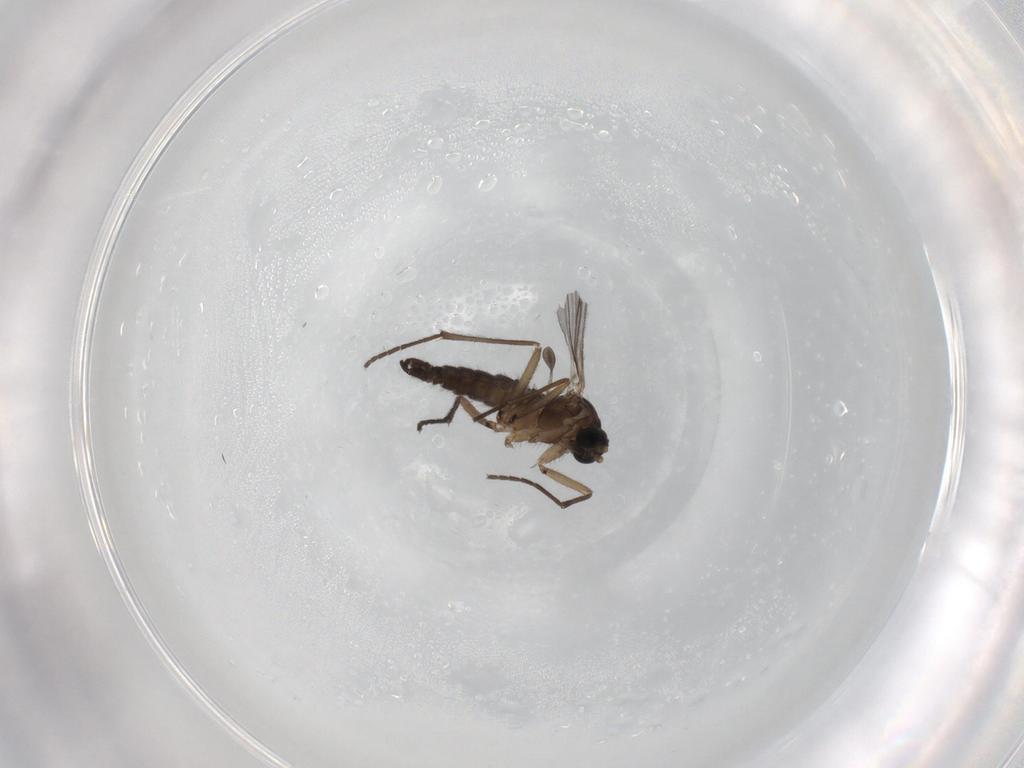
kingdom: Animalia
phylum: Arthropoda
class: Insecta
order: Diptera
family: Sciaridae
